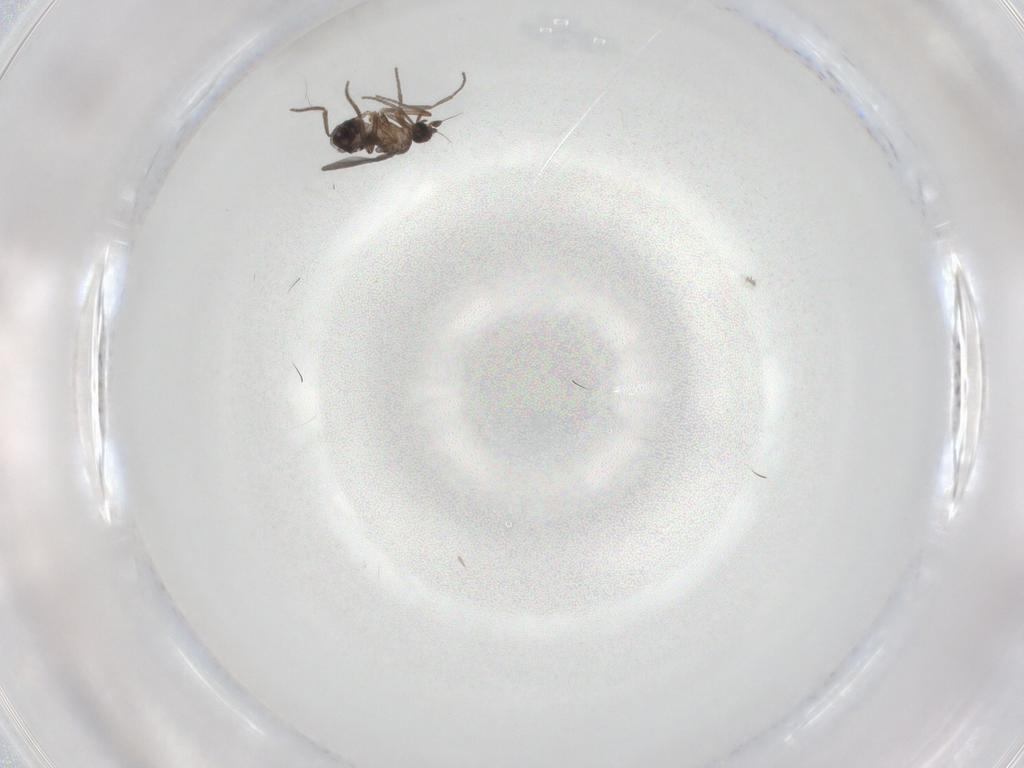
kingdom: Animalia
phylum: Arthropoda
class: Insecta
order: Diptera
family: Phoridae
